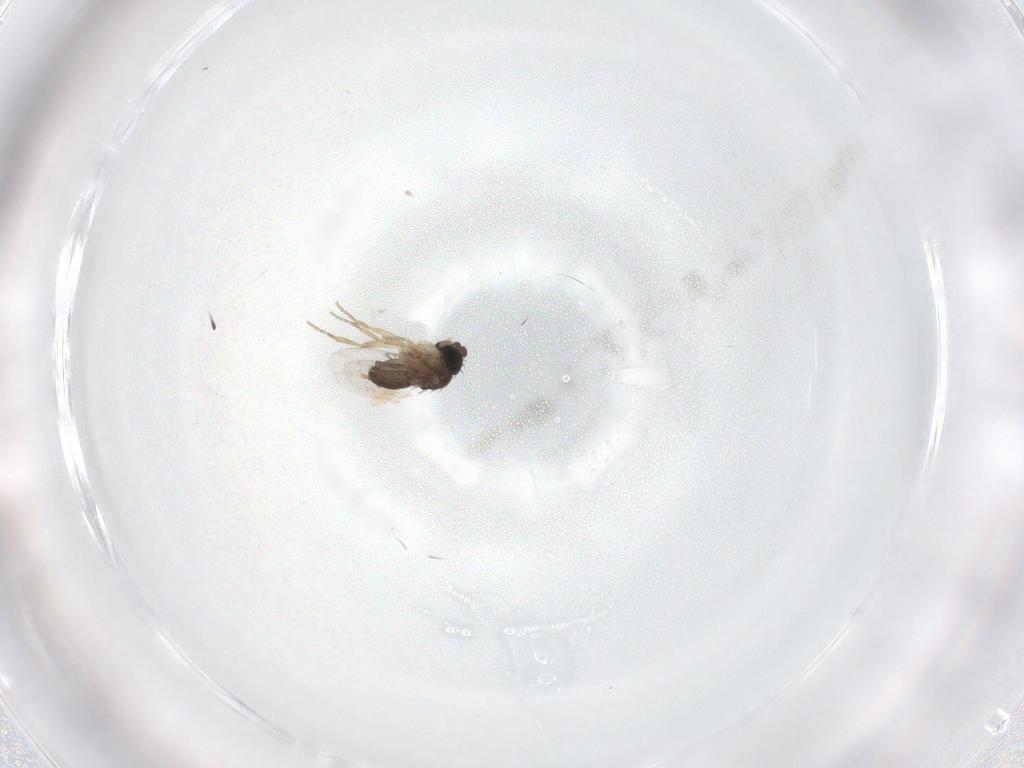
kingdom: Animalia
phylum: Arthropoda
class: Insecta
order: Diptera
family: Phoridae
